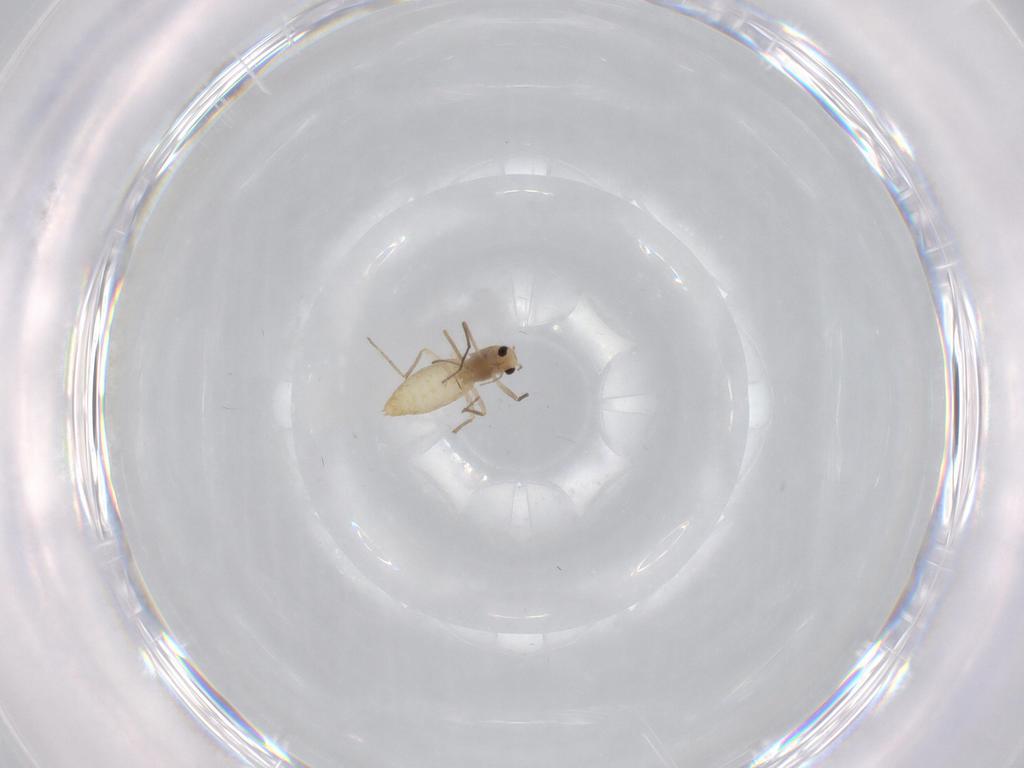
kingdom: Animalia
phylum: Arthropoda
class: Insecta
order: Diptera
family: Chironomidae
